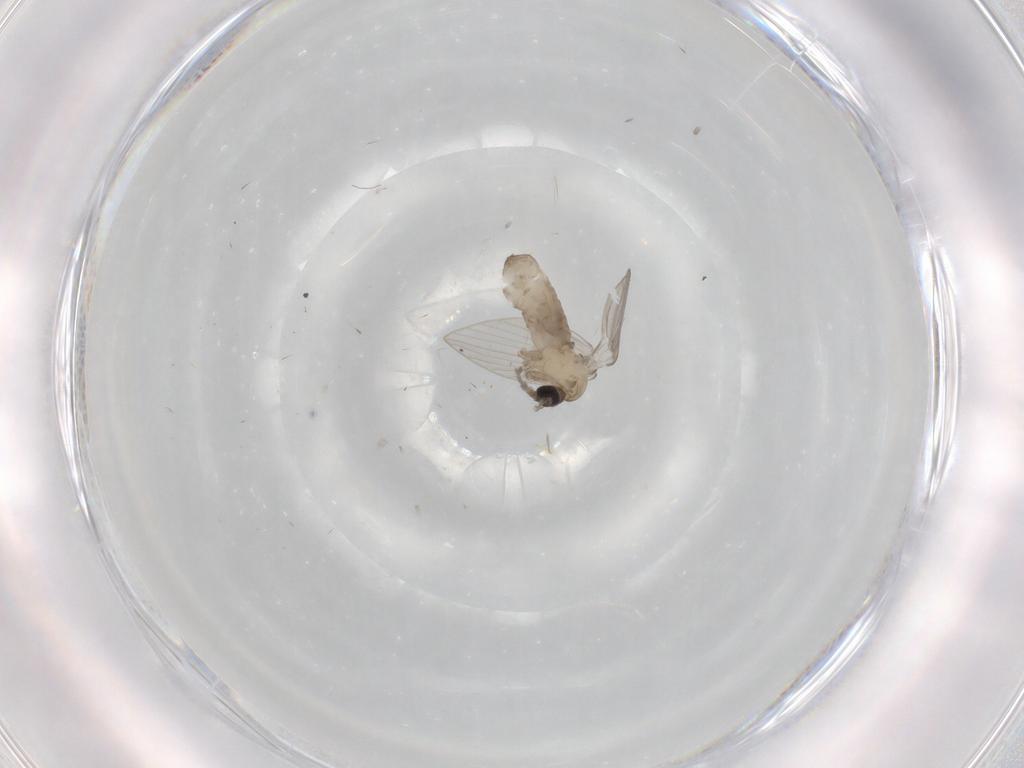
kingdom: Animalia
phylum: Arthropoda
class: Insecta
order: Diptera
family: Psychodidae
